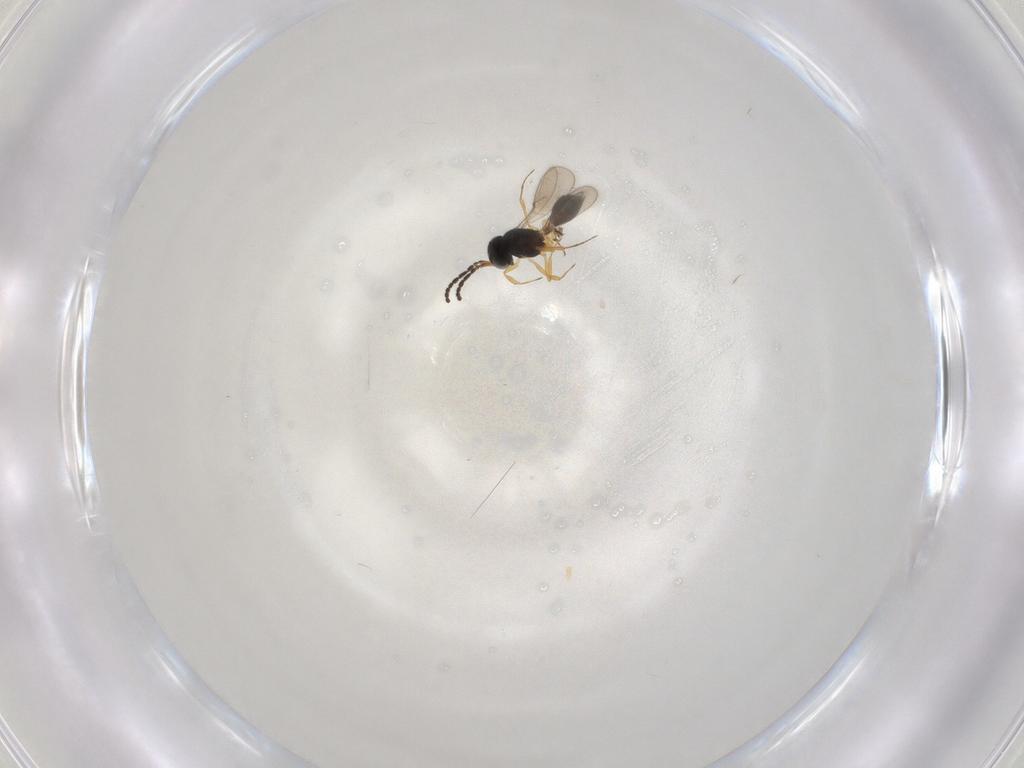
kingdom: Animalia
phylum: Arthropoda
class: Insecta
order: Hymenoptera
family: Scelionidae
